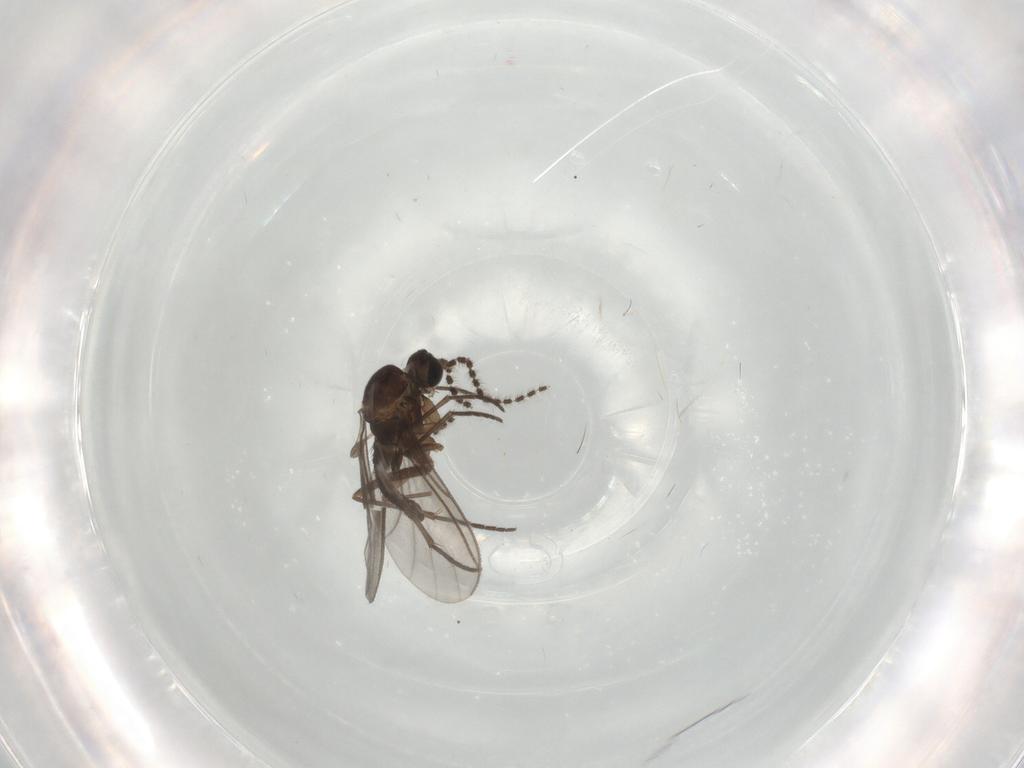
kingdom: Animalia
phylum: Arthropoda
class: Insecta
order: Diptera
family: Sciaridae
